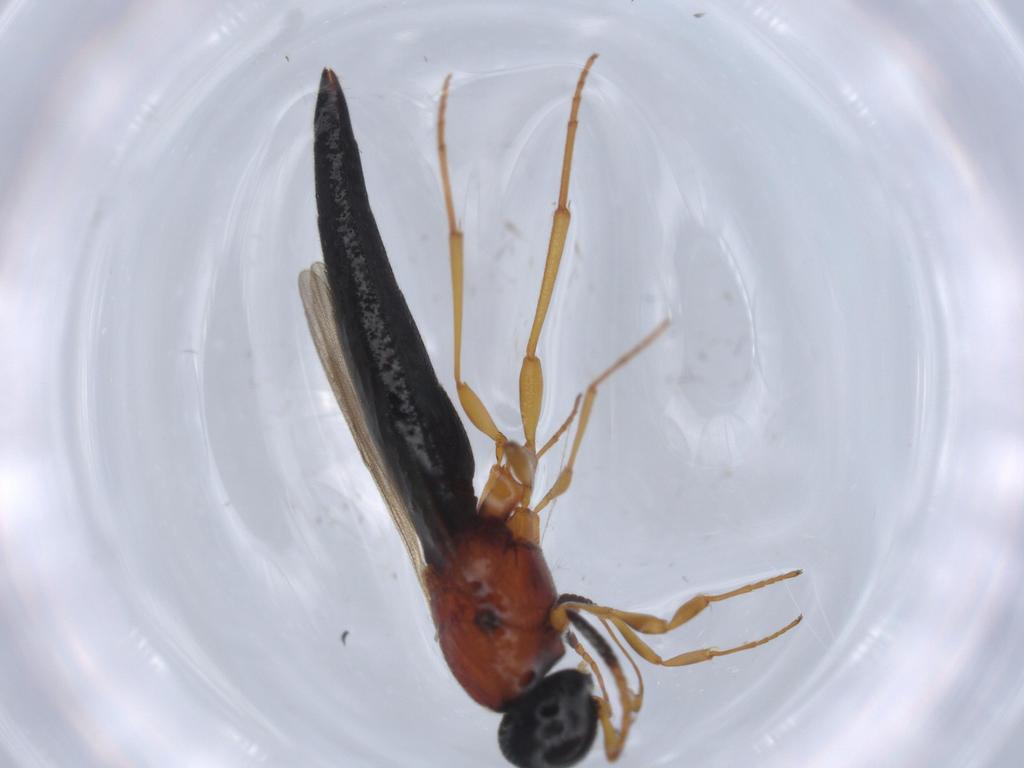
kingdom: Animalia
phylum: Arthropoda
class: Insecta
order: Hymenoptera
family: Scelionidae
